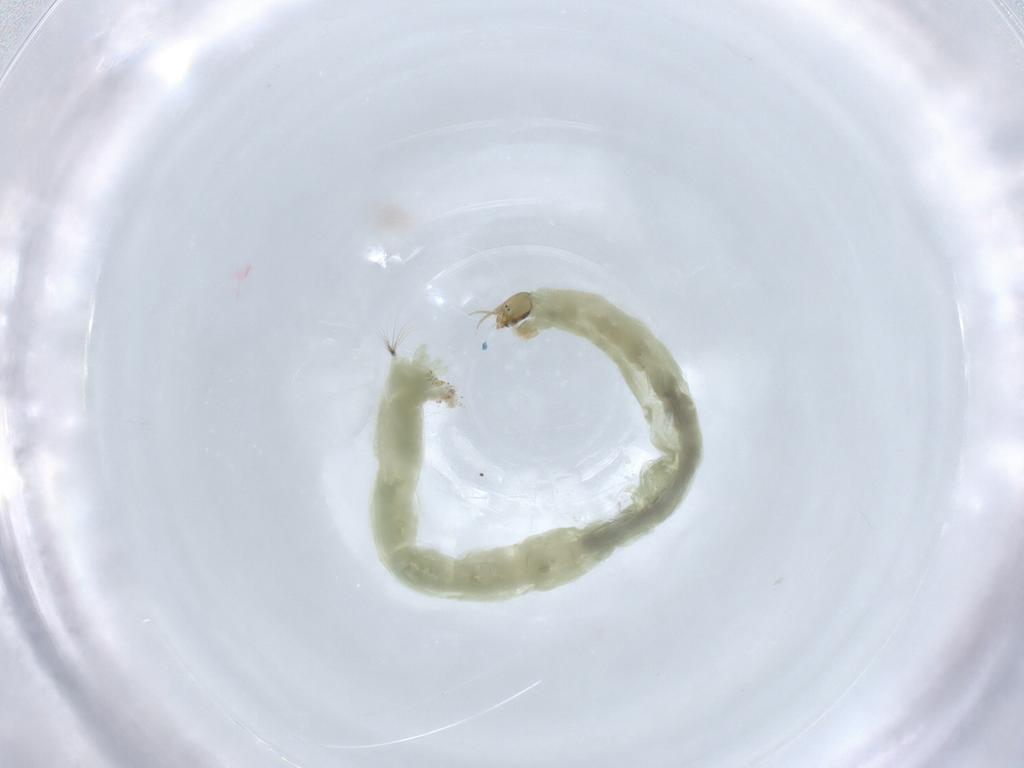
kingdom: Animalia
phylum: Arthropoda
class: Insecta
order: Diptera
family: Chironomidae
